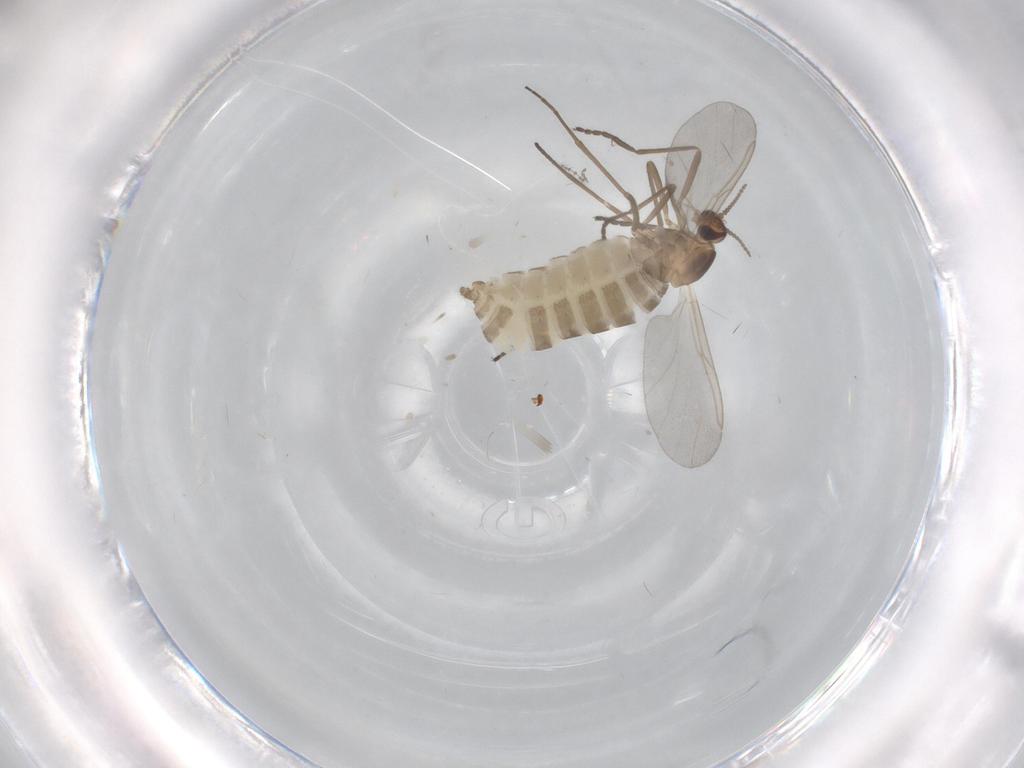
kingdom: Animalia
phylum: Arthropoda
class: Insecta
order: Diptera
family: Cecidomyiidae
